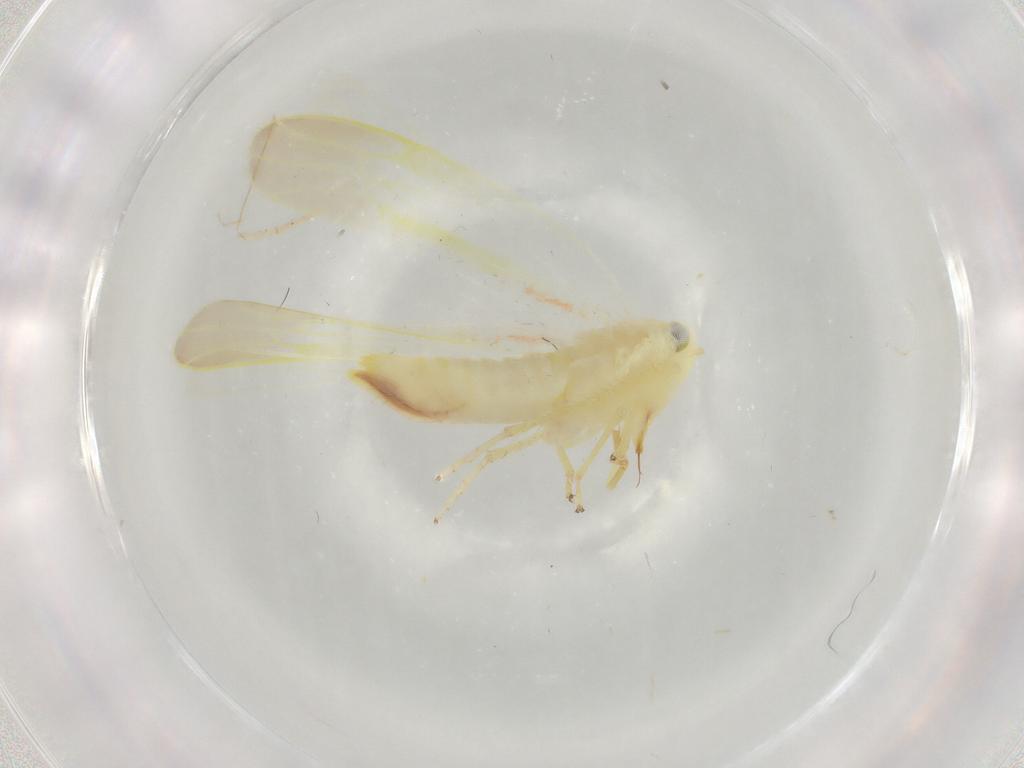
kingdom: Animalia
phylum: Arthropoda
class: Insecta
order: Hemiptera
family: Cicadellidae
